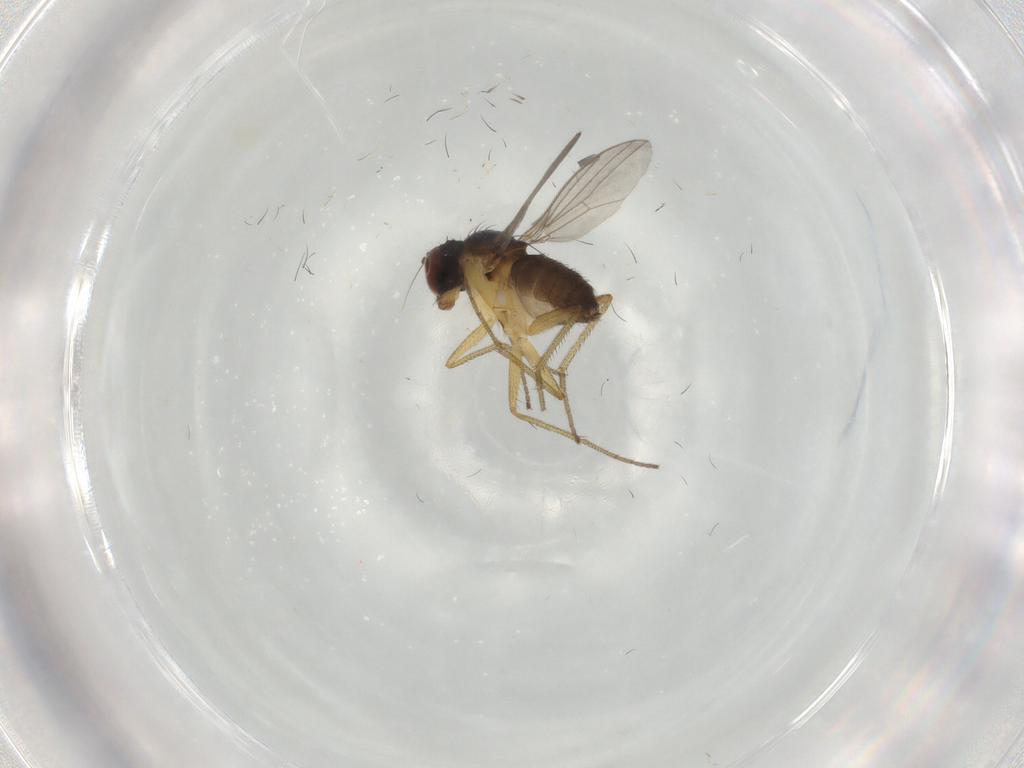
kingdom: Animalia
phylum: Arthropoda
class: Insecta
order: Diptera
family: Dolichopodidae
